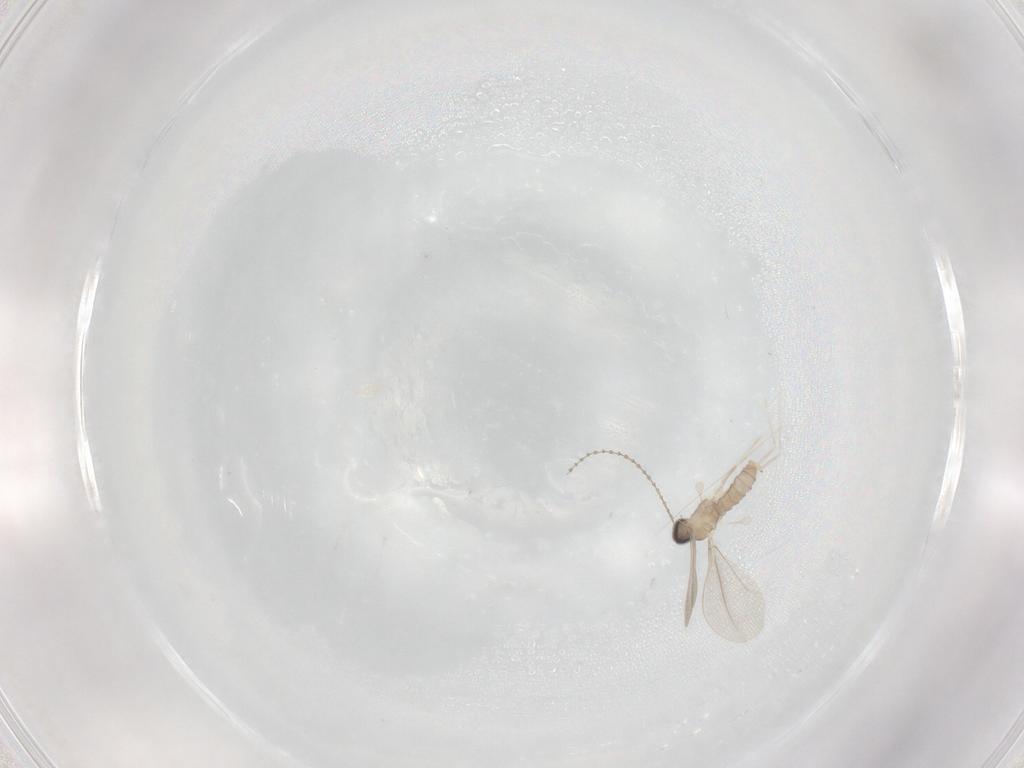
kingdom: Animalia
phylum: Arthropoda
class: Insecta
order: Diptera
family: Cecidomyiidae
